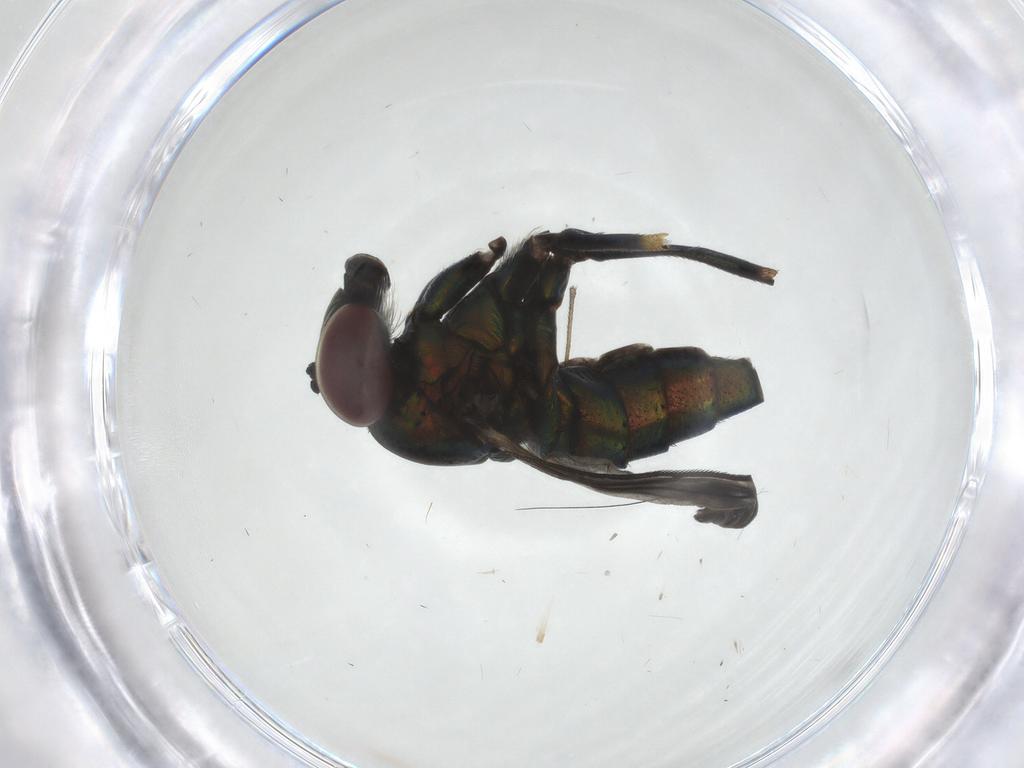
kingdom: Animalia
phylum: Arthropoda
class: Insecta
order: Diptera
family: Dolichopodidae
